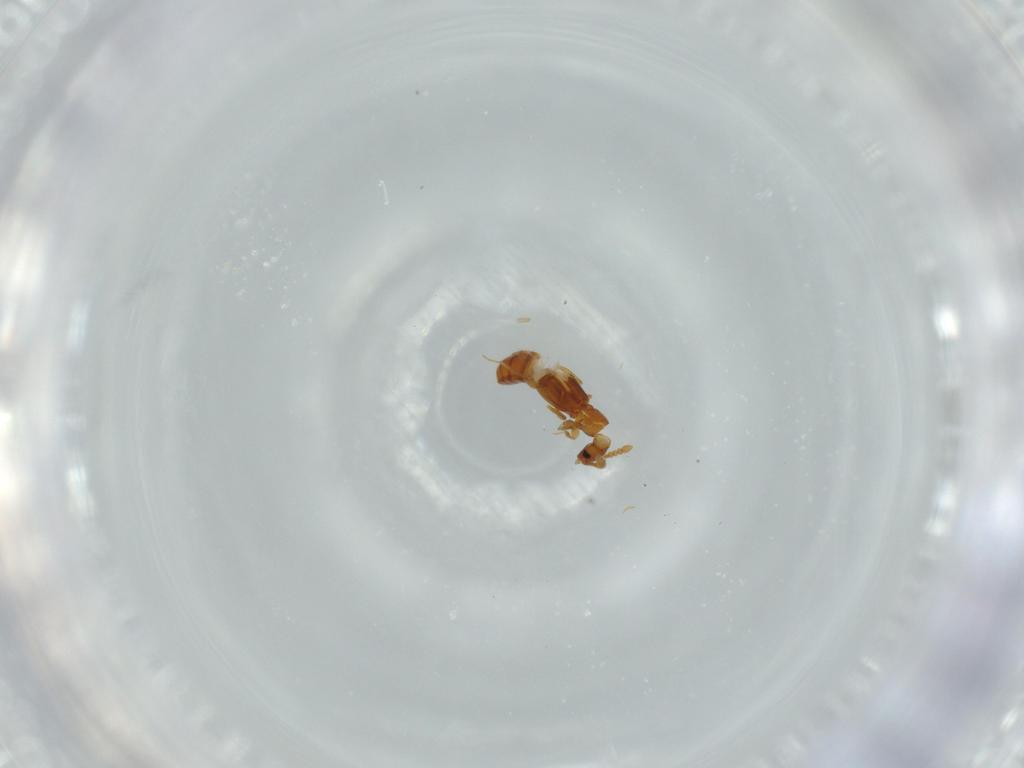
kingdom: Animalia
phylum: Arthropoda
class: Insecta
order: Coleoptera
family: Staphylinidae
